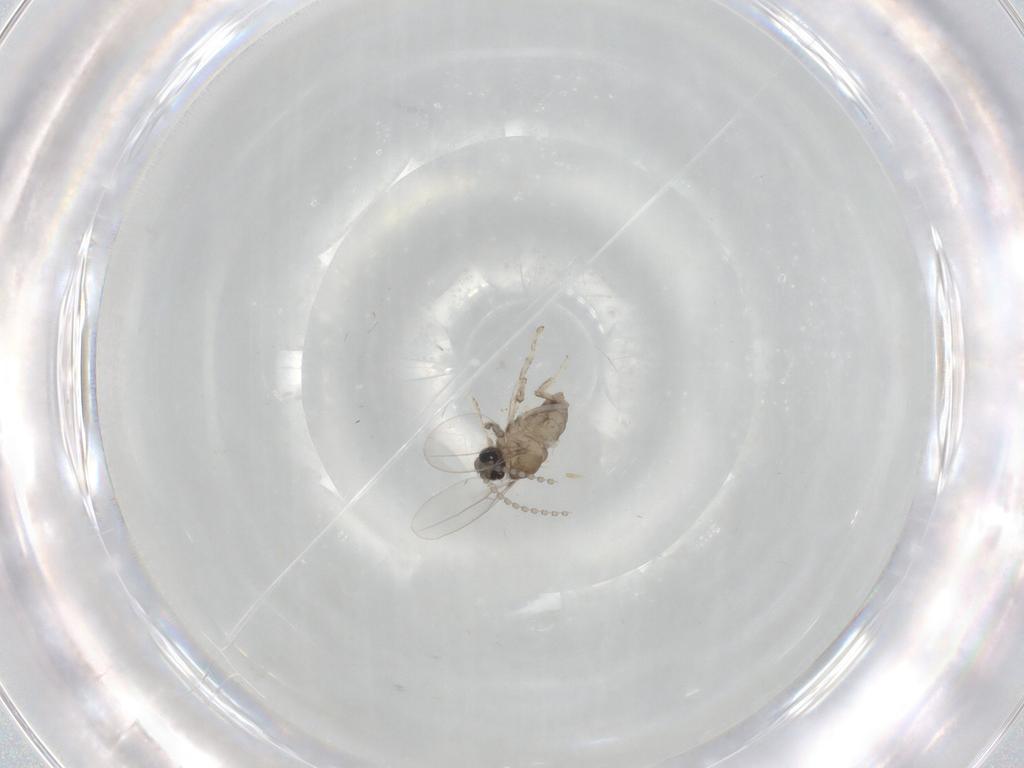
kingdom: Animalia
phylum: Arthropoda
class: Insecta
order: Diptera
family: Cecidomyiidae
